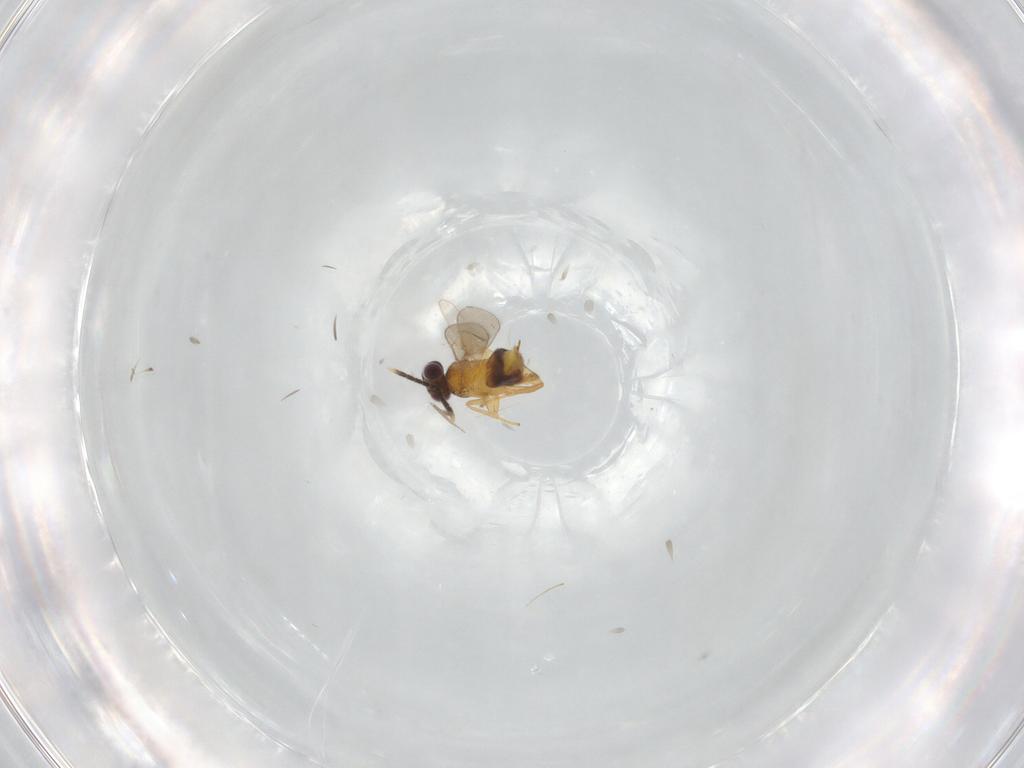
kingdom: Animalia
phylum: Arthropoda
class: Insecta
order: Hymenoptera
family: Aphelinidae
